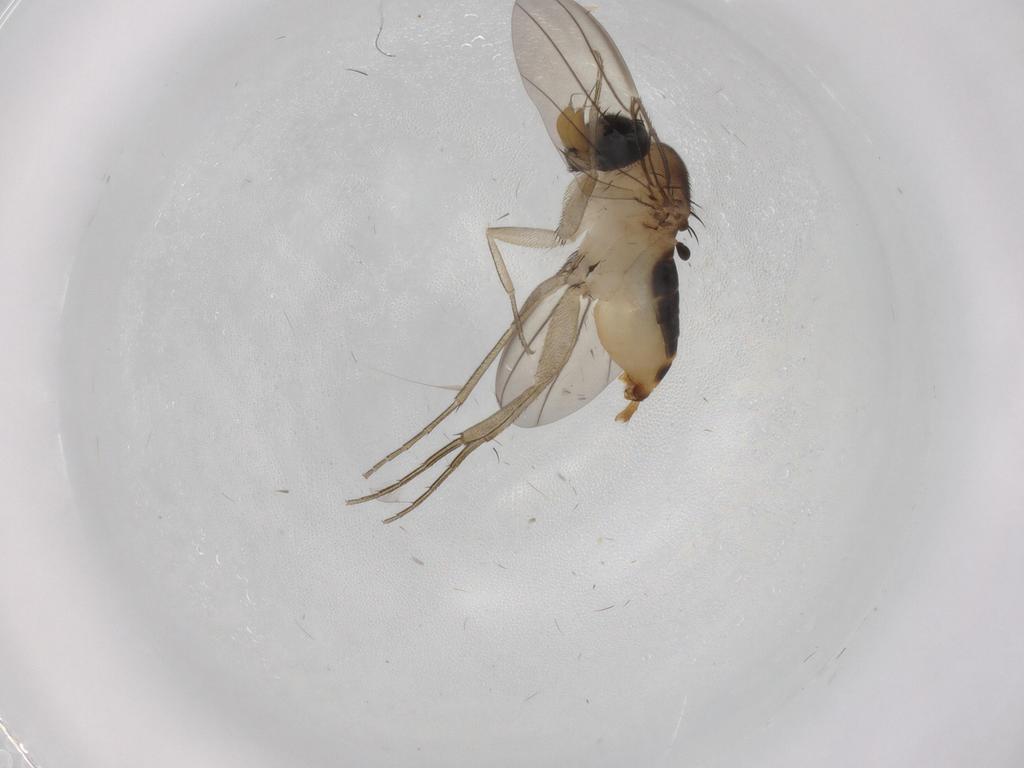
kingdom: Animalia
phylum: Arthropoda
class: Insecta
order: Diptera
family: Phoridae
